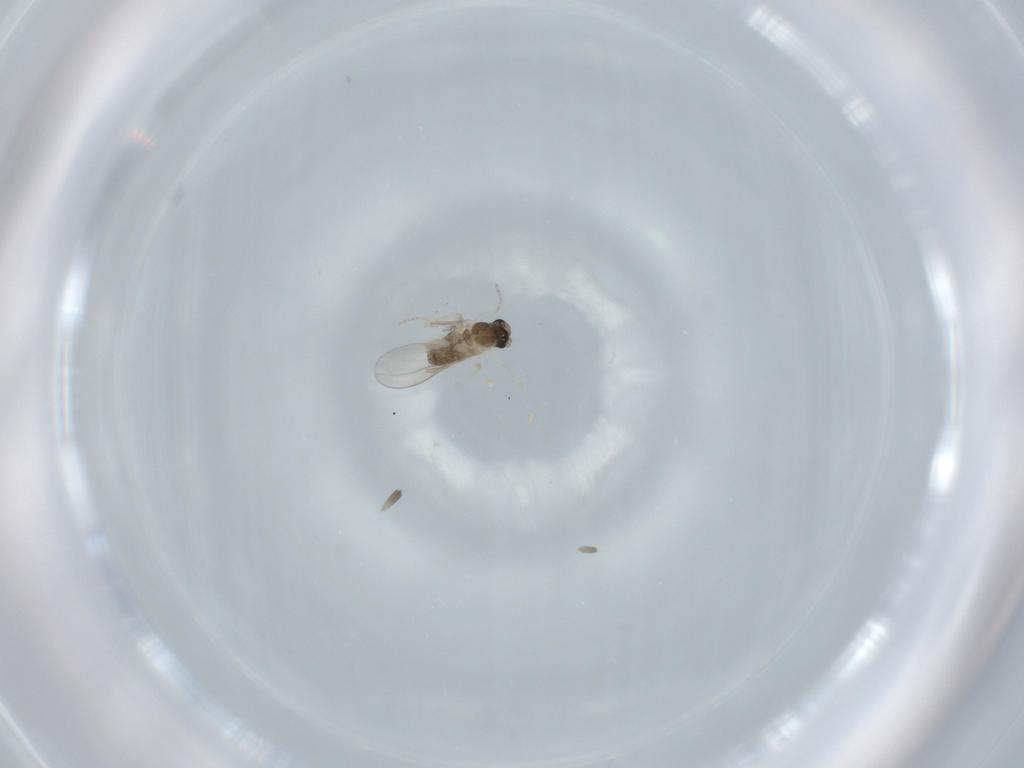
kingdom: Animalia
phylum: Arthropoda
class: Insecta
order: Diptera
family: Cecidomyiidae
